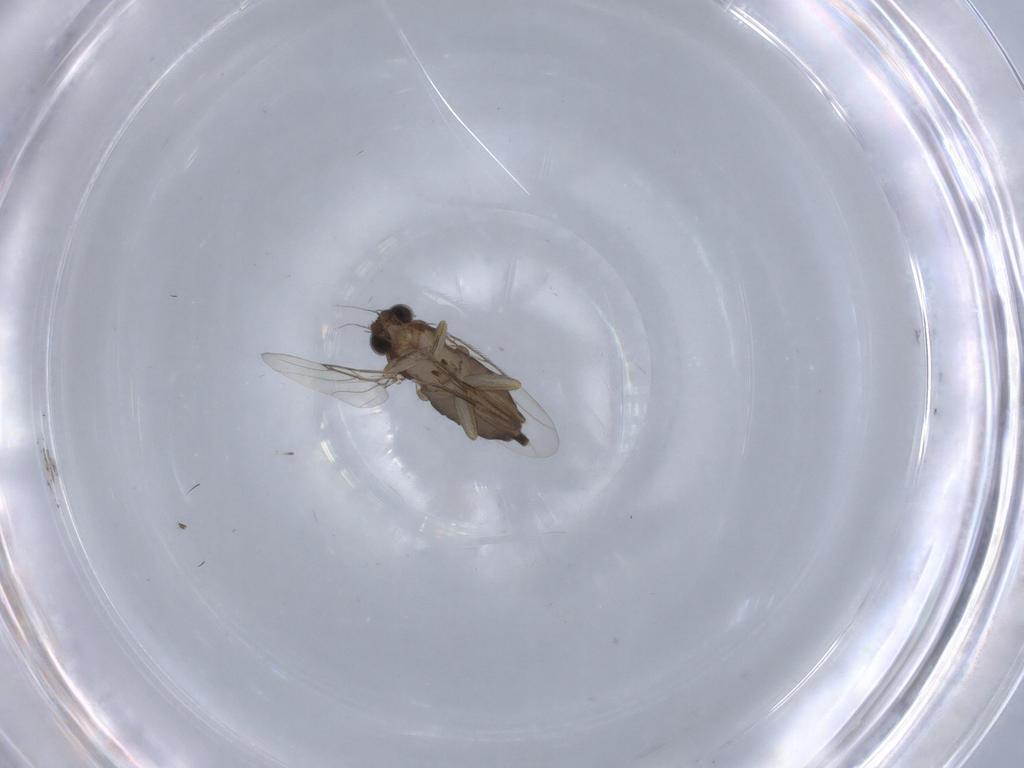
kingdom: Animalia
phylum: Arthropoda
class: Insecta
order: Diptera
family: Phoridae
